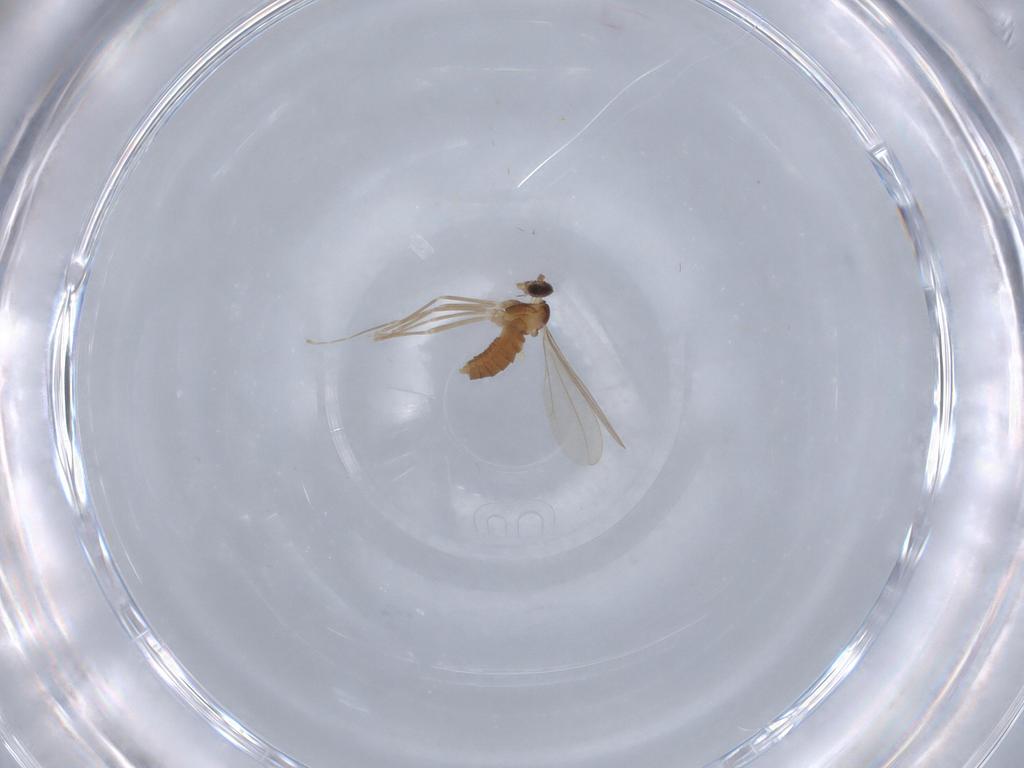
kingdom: Animalia
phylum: Arthropoda
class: Insecta
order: Diptera
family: Cecidomyiidae
